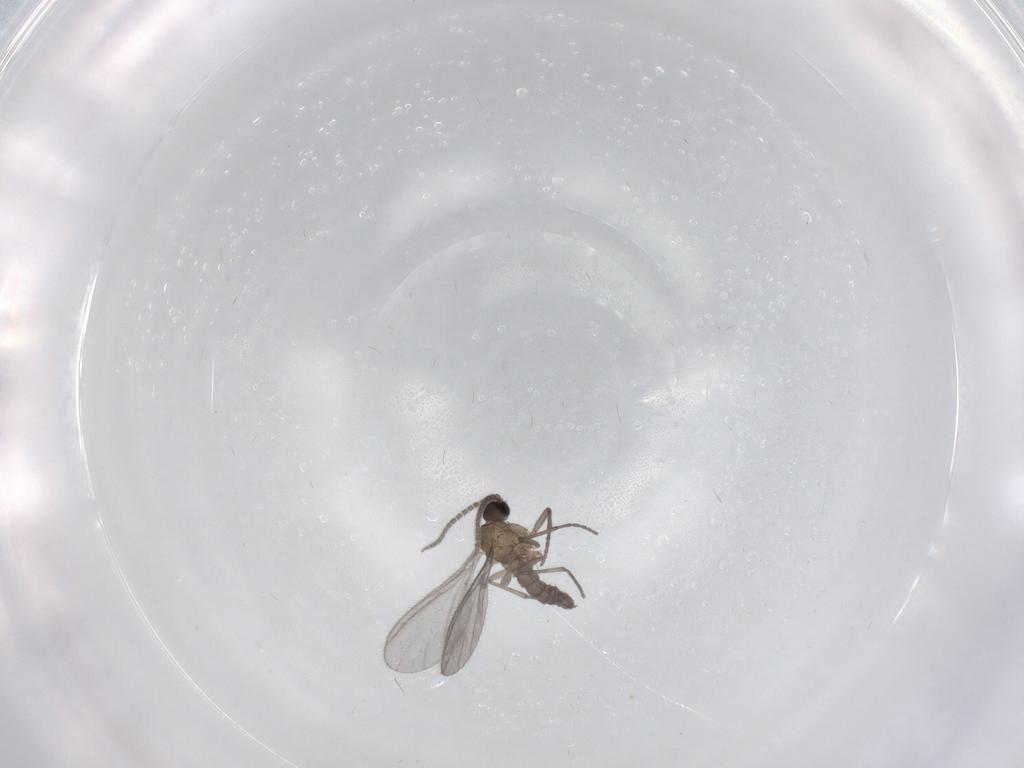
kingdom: Animalia
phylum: Arthropoda
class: Insecta
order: Diptera
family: Sciaridae
